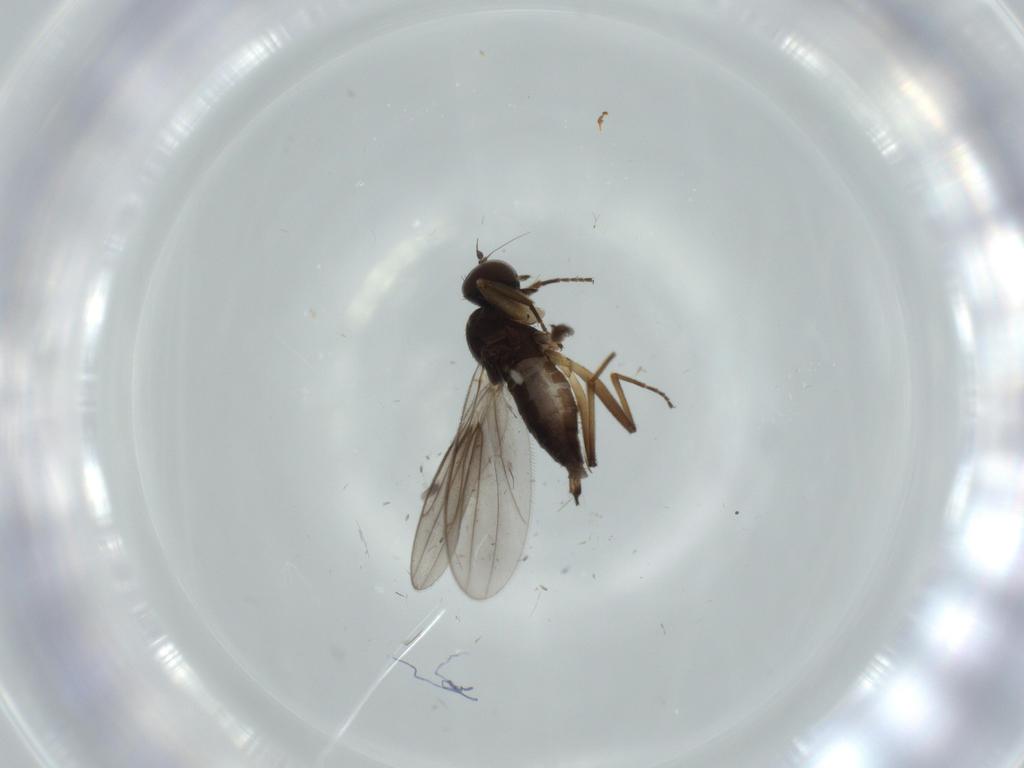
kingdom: Animalia
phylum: Arthropoda
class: Insecta
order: Diptera
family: Hybotidae
